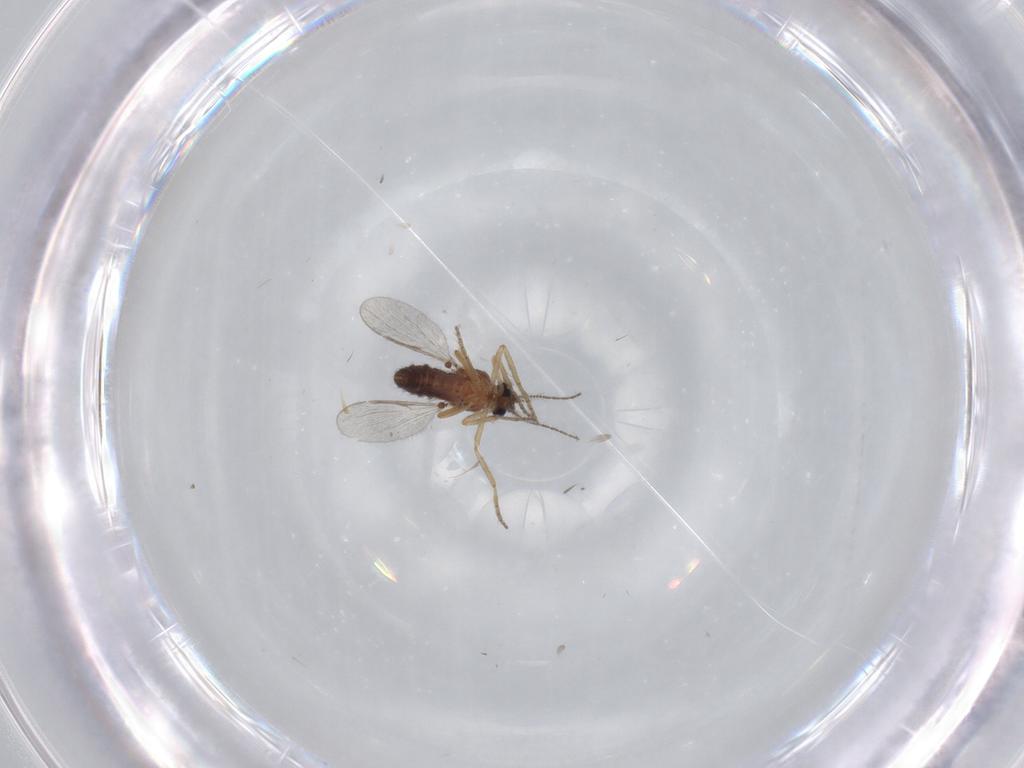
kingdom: Animalia
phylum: Arthropoda
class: Insecta
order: Diptera
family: Ceratopogonidae
